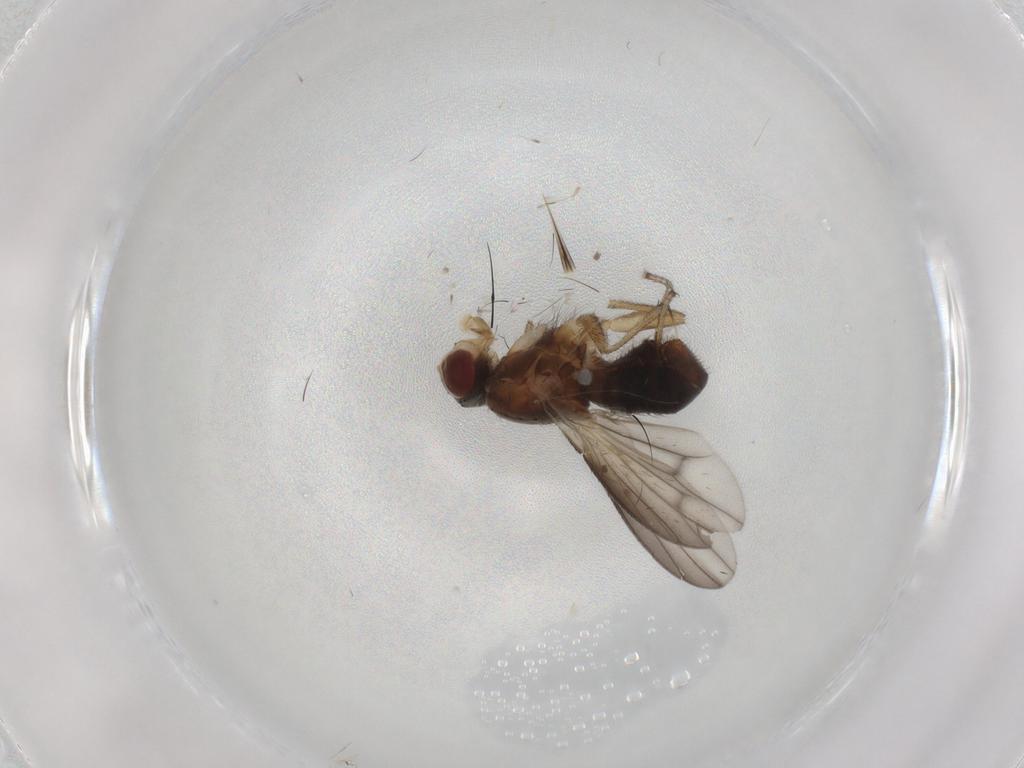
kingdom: Animalia
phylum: Arthropoda
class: Insecta
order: Diptera
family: Heleomyzidae
